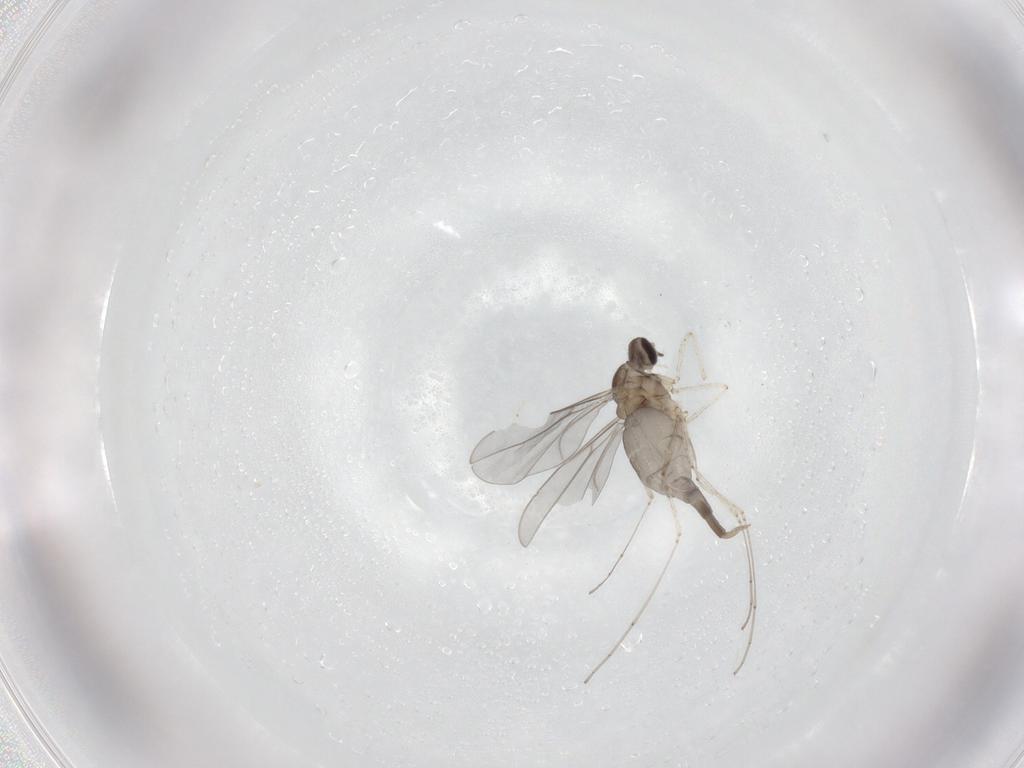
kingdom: Animalia
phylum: Arthropoda
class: Insecta
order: Diptera
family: Cecidomyiidae
